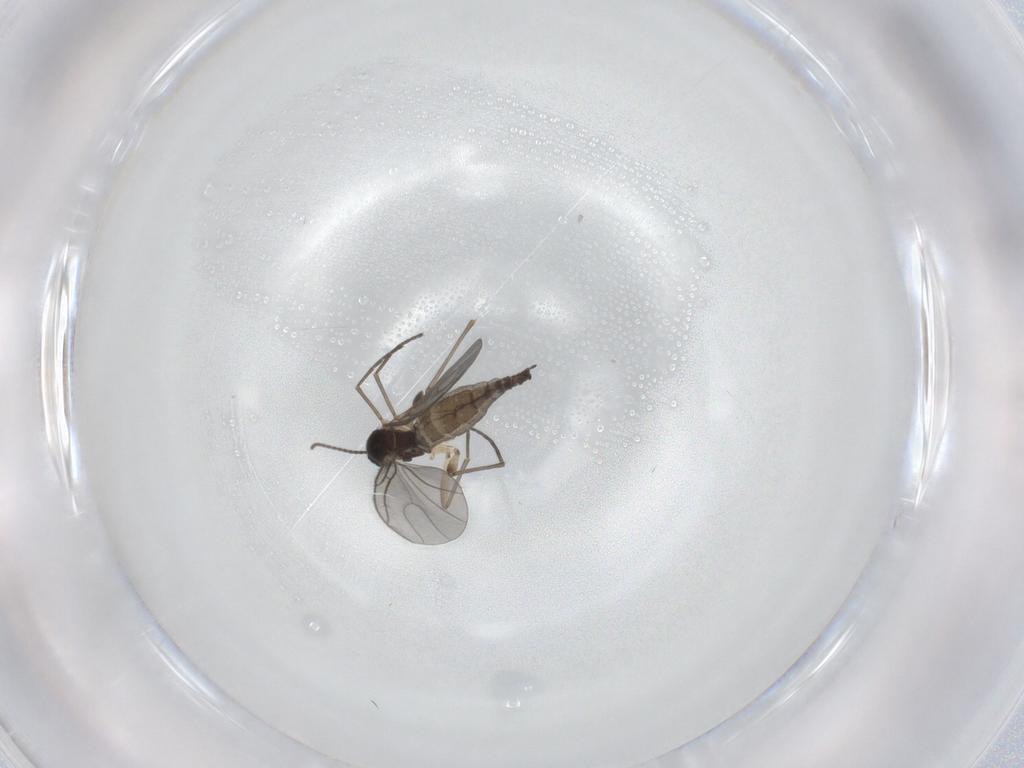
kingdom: Animalia
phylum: Arthropoda
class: Insecta
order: Diptera
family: Sciaridae
